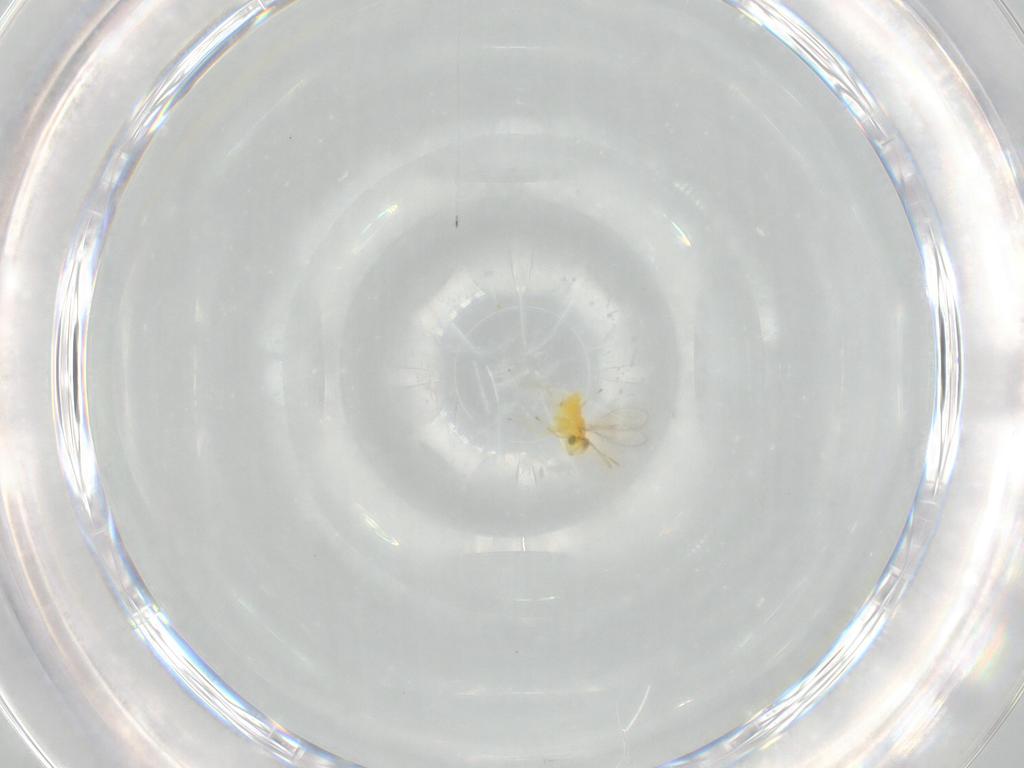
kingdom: Animalia
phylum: Arthropoda
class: Insecta
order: Hymenoptera
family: Aphelinidae
